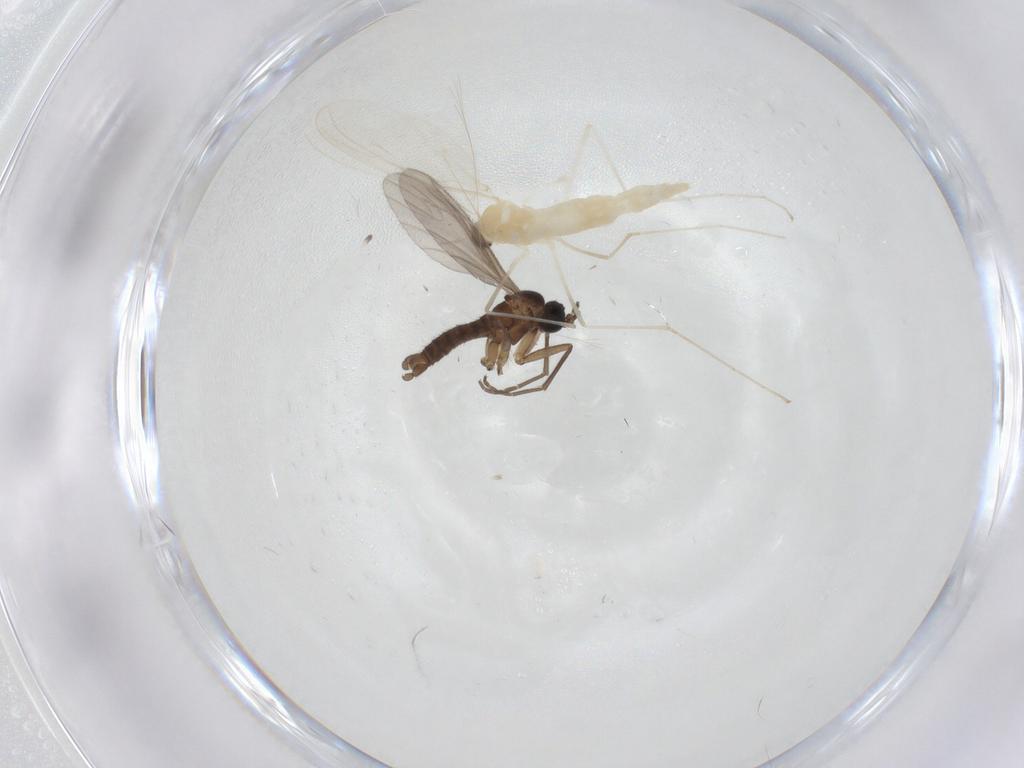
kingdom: Animalia
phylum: Arthropoda
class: Insecta
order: Diptera
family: Cecidomyiidae
